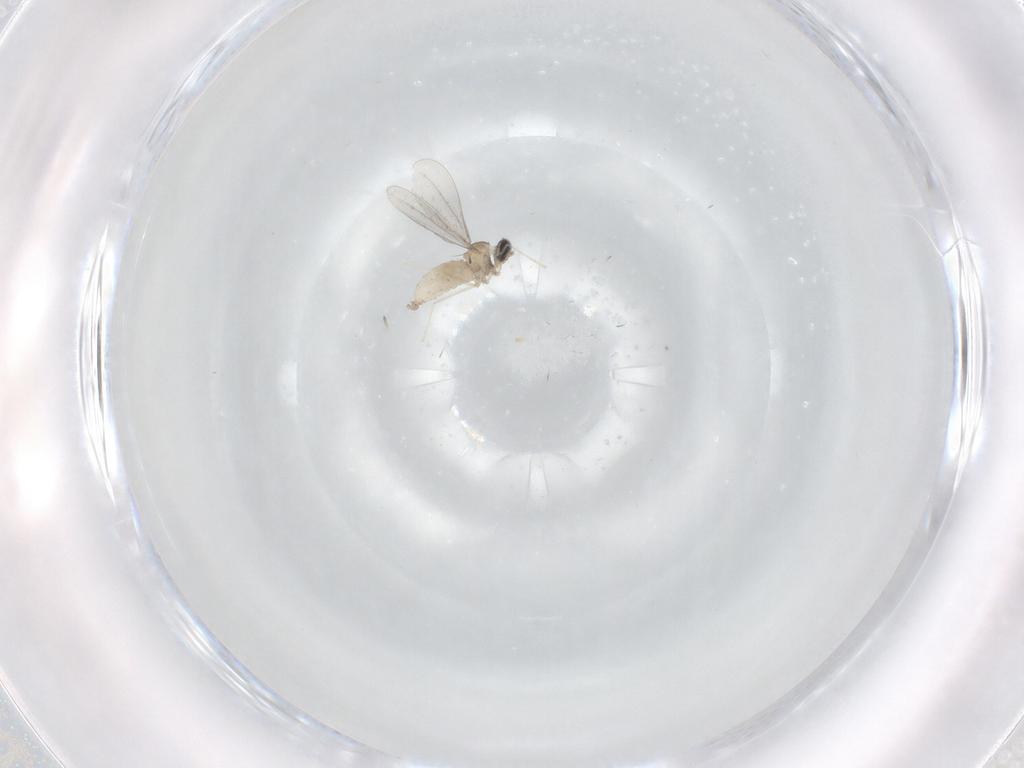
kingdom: Animalia
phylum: Arthropoda
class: Insecta
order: Diptera
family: Sciaridae
